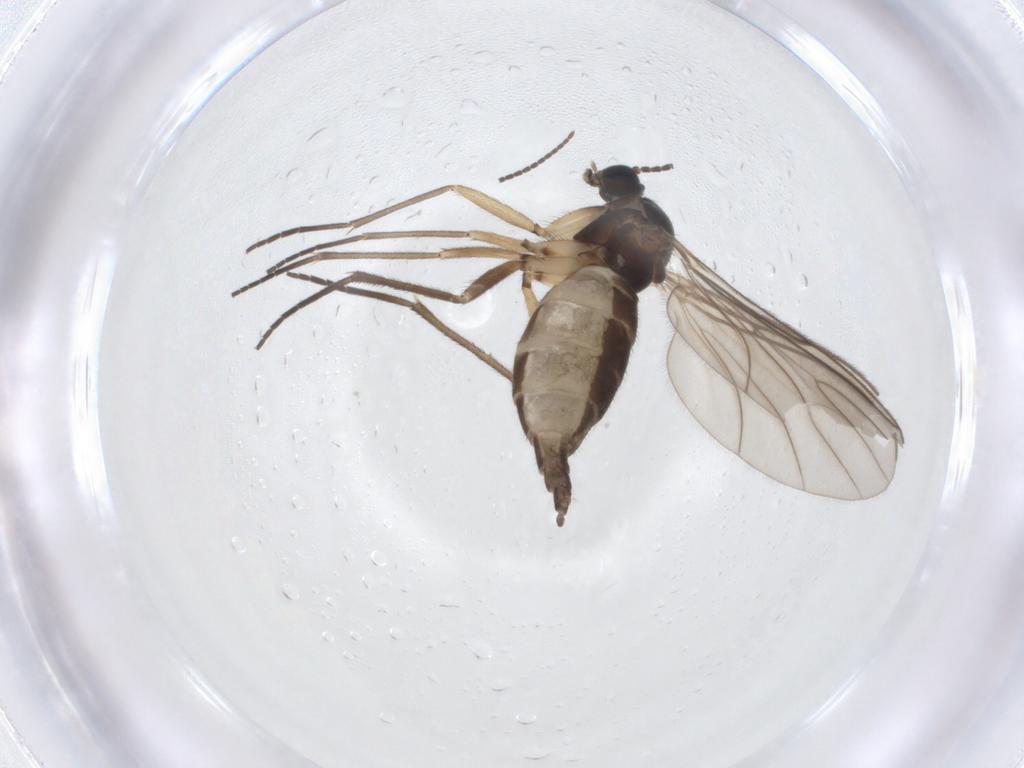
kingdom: Animalia
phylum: Arthropoda
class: Insecta
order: Diptera
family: Sciaridae
